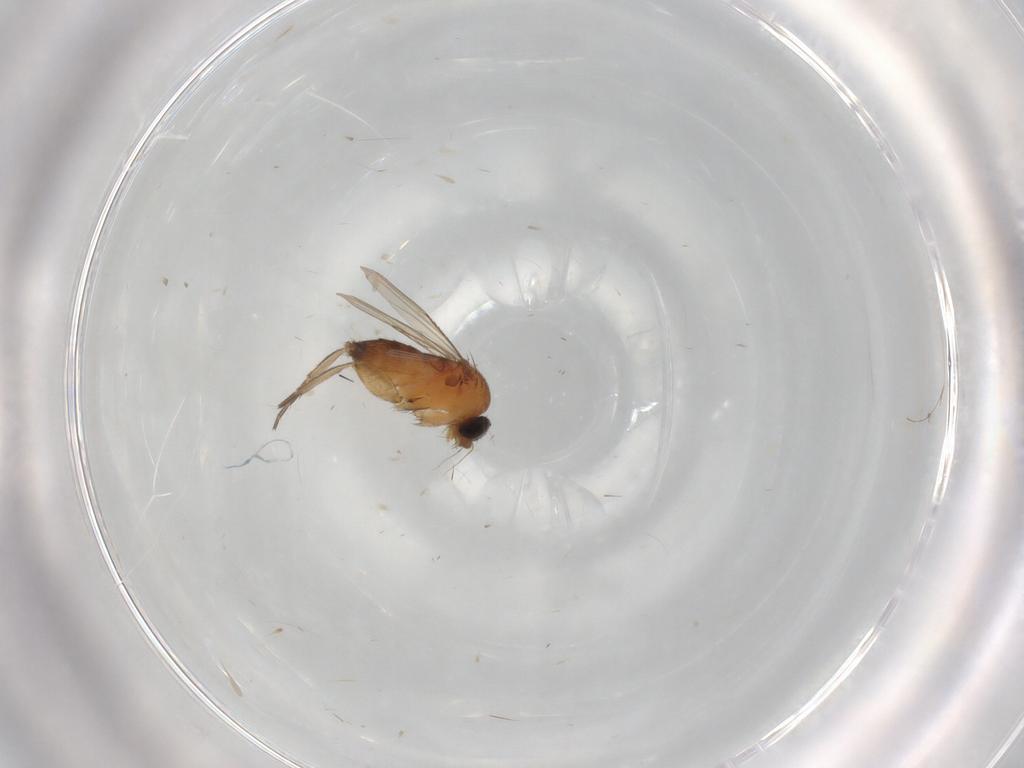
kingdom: Animalia
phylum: Arthropoda
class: Insecta
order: Diptera
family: Phoridae
